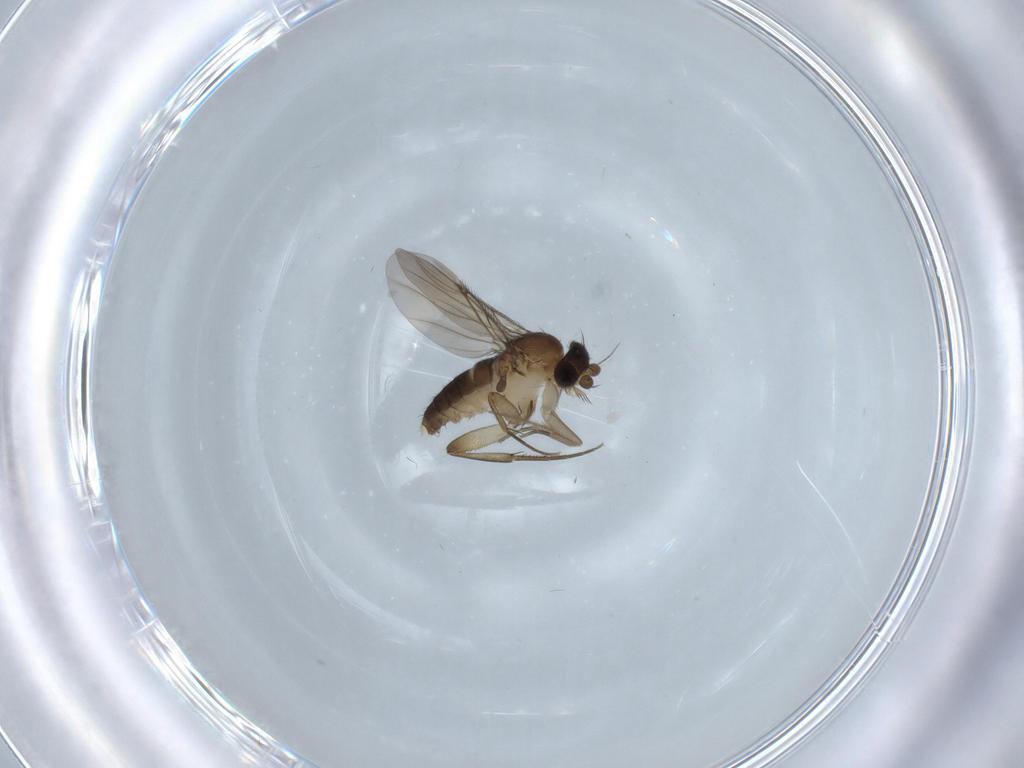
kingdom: Animalia
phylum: Arthropoda
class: Insecta
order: Diptera
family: Phoridae
